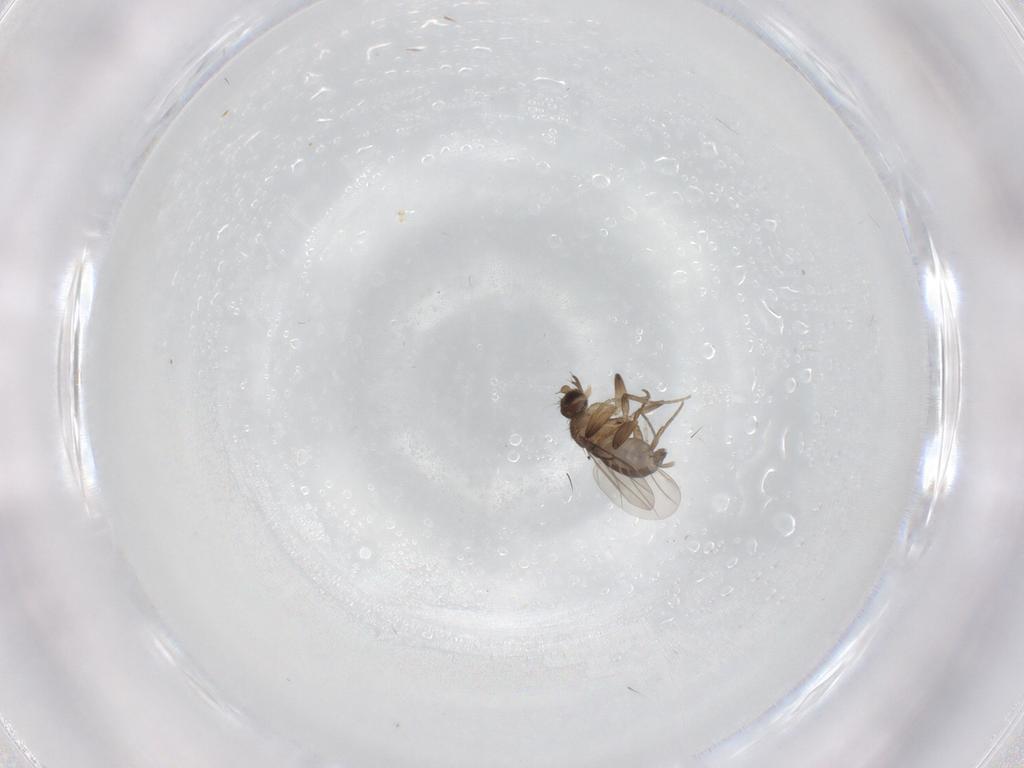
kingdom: Animalia
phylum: Arthropoda
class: Insecta
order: Diptera
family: Phoridae
